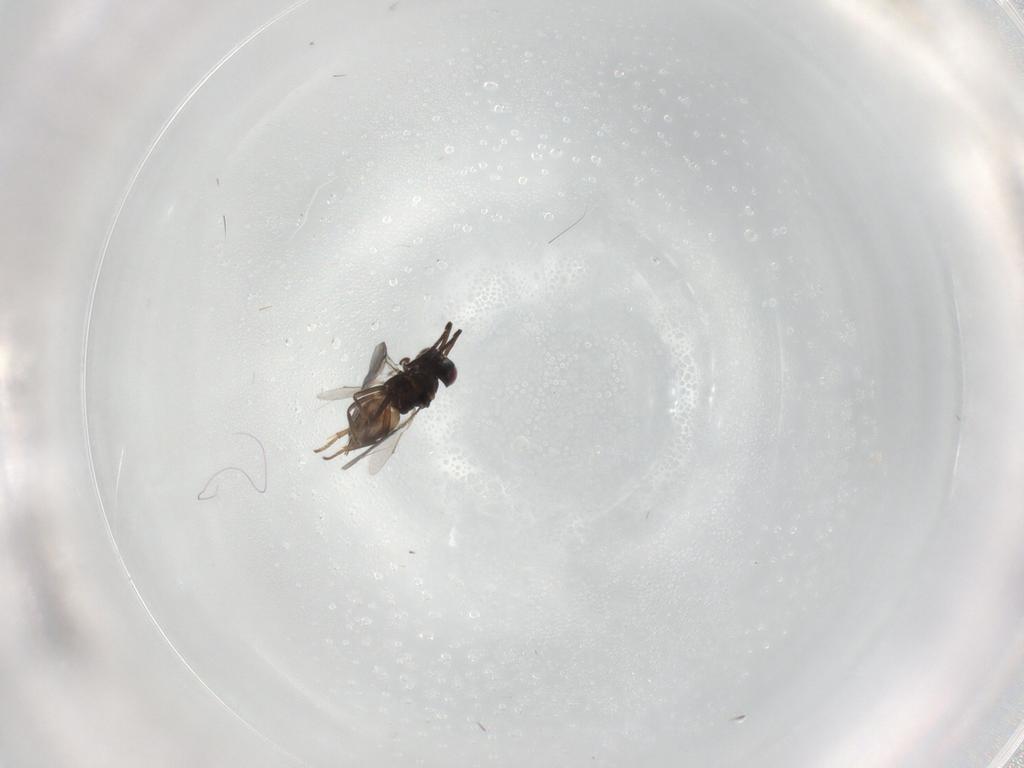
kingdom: Animalia
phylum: Arthropoda
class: Insecta
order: Hymenoptera
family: Encyrtidae
